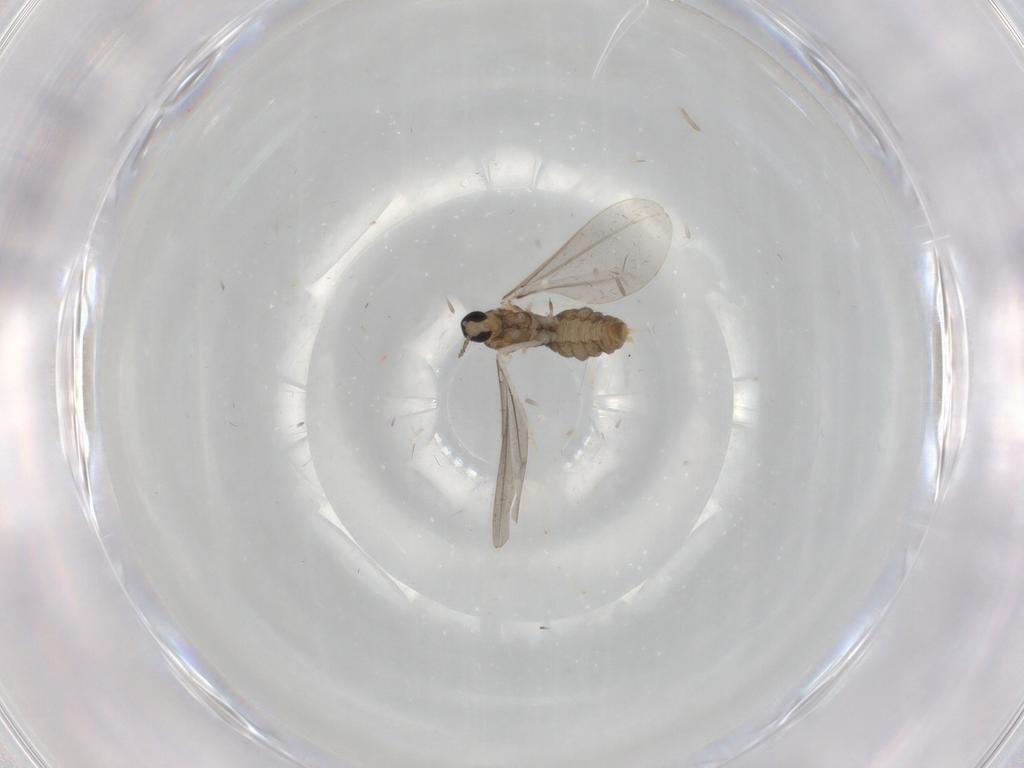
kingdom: Animalia
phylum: Arthropoda
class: Insecta
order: Diptera
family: Cecidomyiidae
